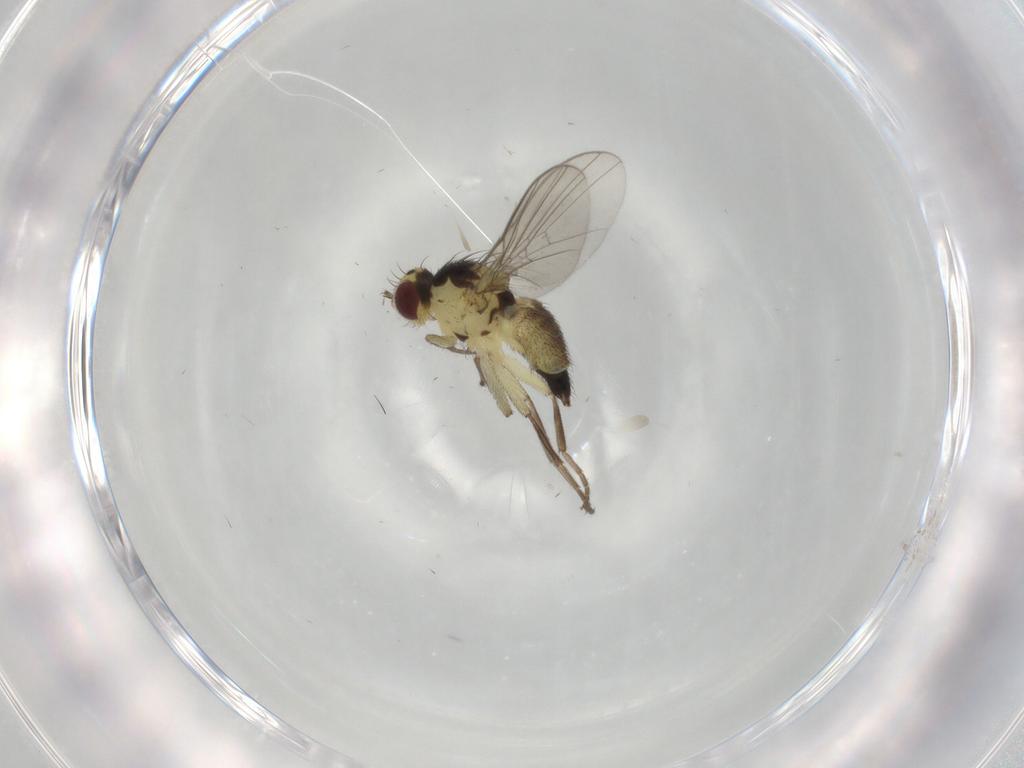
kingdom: Animalia
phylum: Arthropoda
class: Insecta
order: Diptera
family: Agromyzidae
